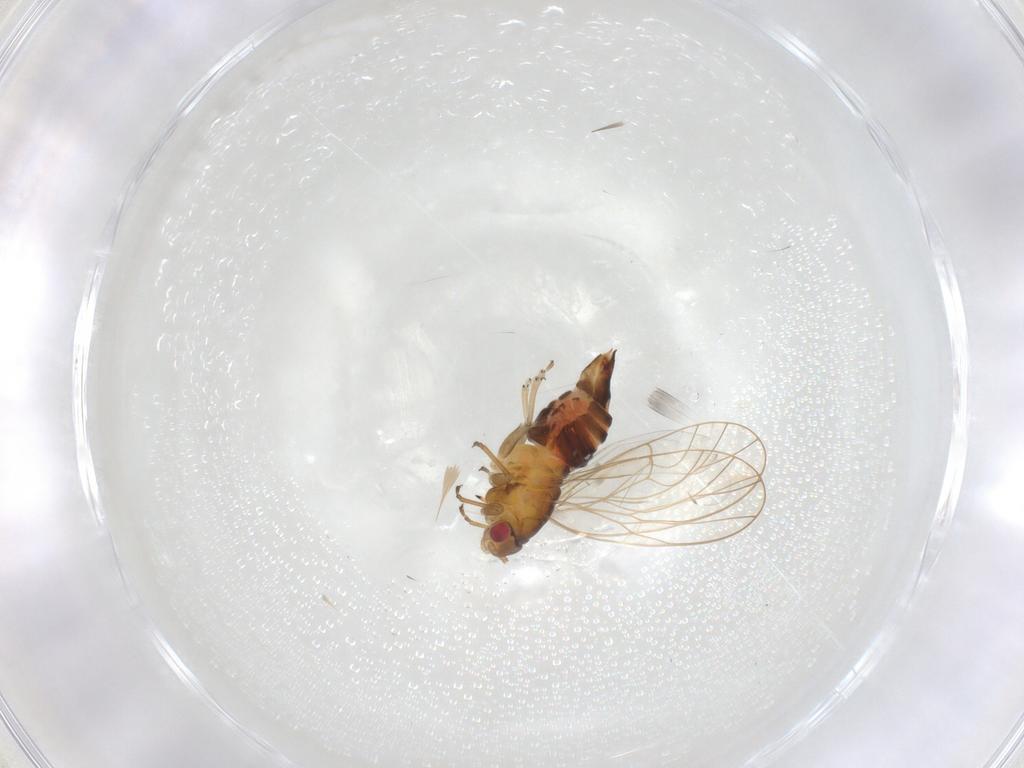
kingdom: Animalia
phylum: Arthropoda
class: Insecta
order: Hemiptera
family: Psyllidae
